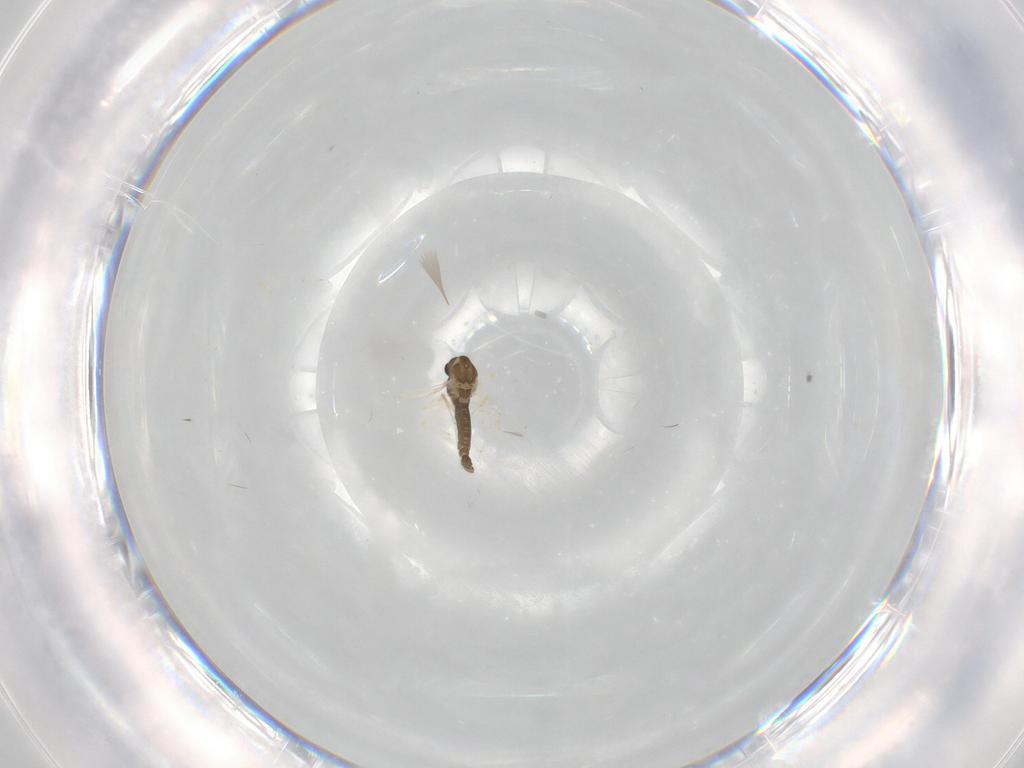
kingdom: Animalia
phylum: Arthropoda
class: Insecta
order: Diptera
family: Chironomidae
